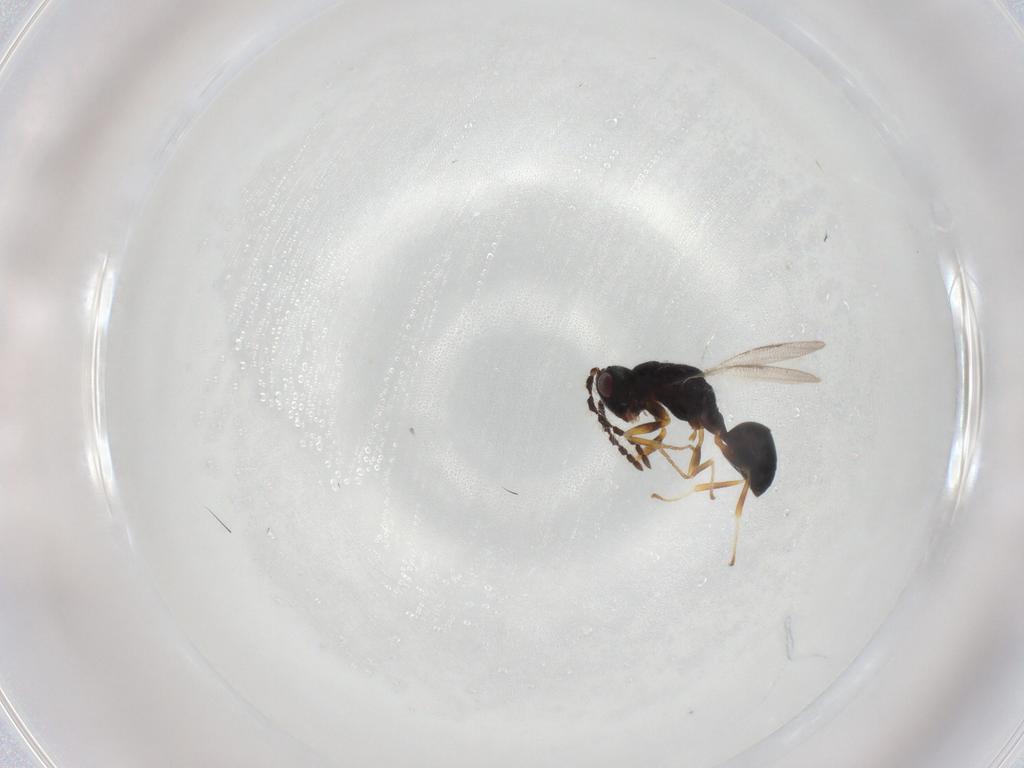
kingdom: Animalia
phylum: Arthropoda
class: Insecta
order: Hymenoptera
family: Eurytomidae
